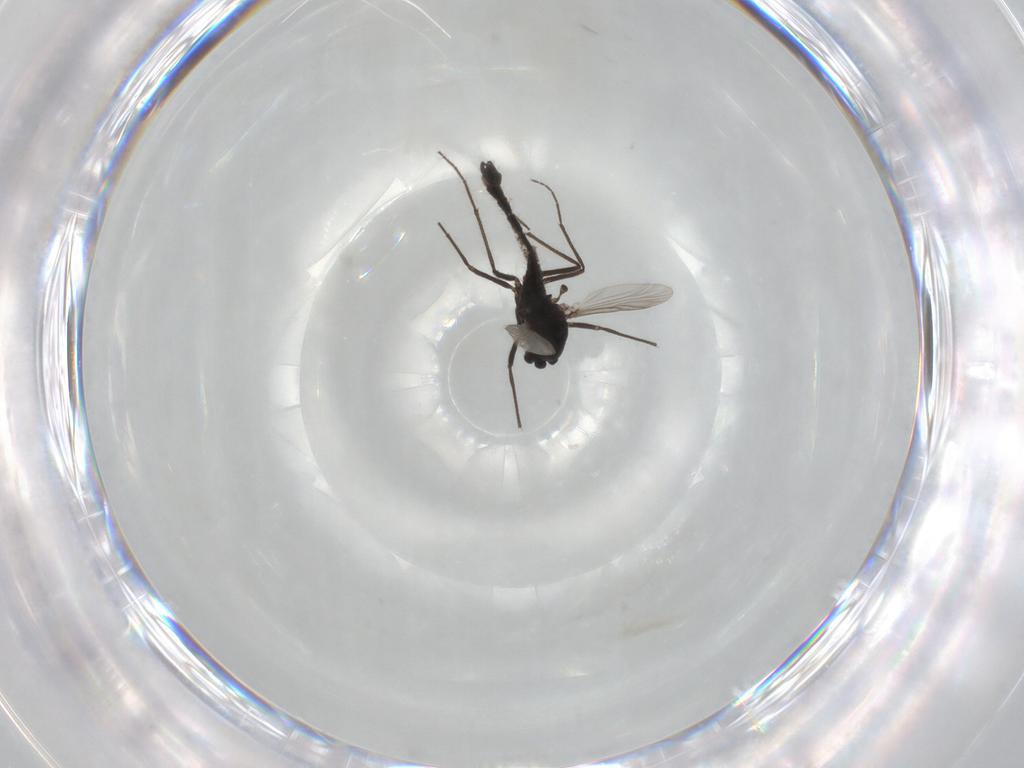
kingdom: Animalia
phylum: Arthropoda
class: Insecta
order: Diptera
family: Chironomidae
